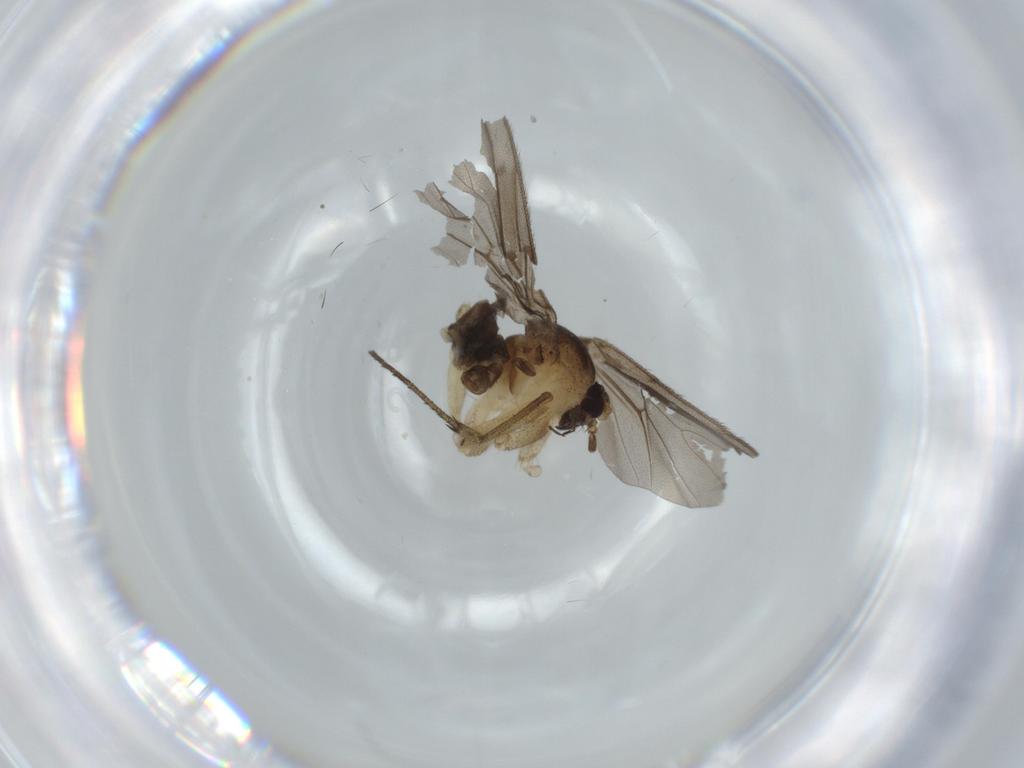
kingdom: Animalia
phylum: Arthropoda
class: Insecta
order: Diptera
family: Diadocidiidae
